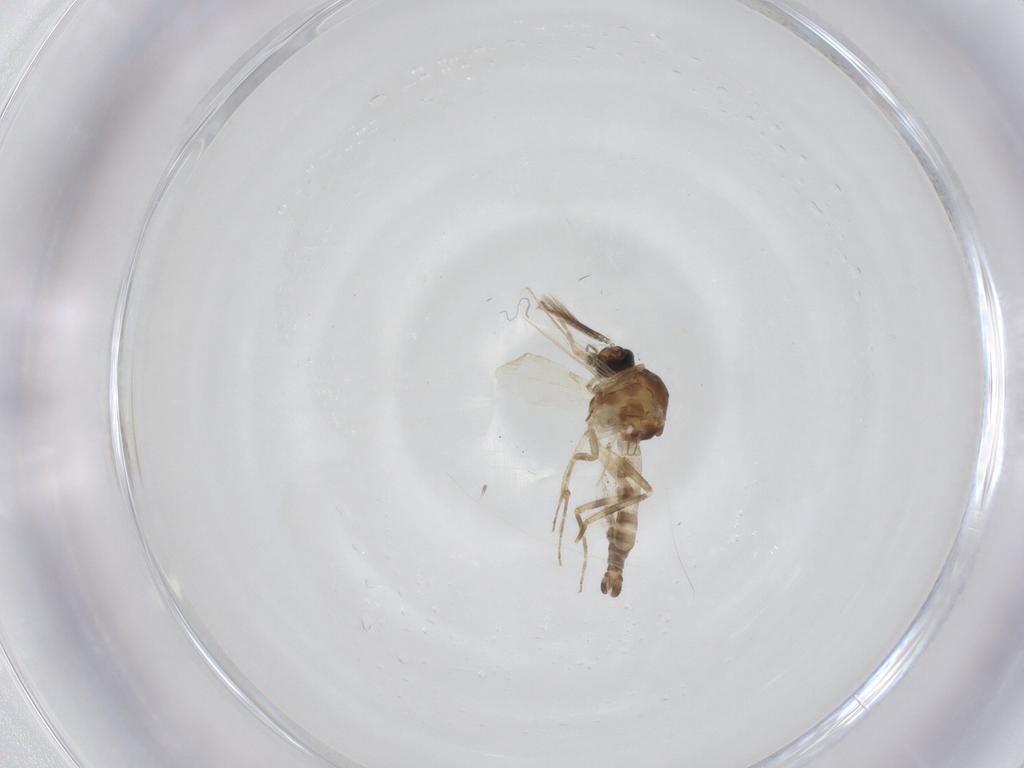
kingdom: Animalia
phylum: Arthropoda
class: Insecta
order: Diptera
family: Ceratopogonidae
